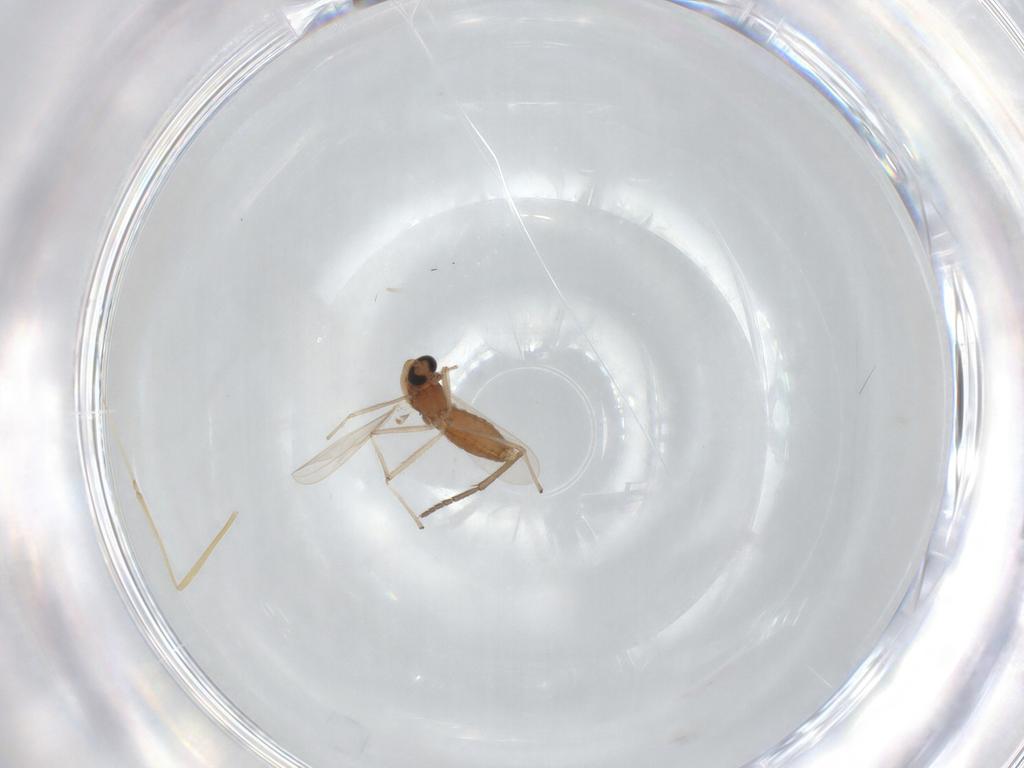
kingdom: Animalia
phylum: Arthropoda
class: Insecta
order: Diptera
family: Chironomidae
